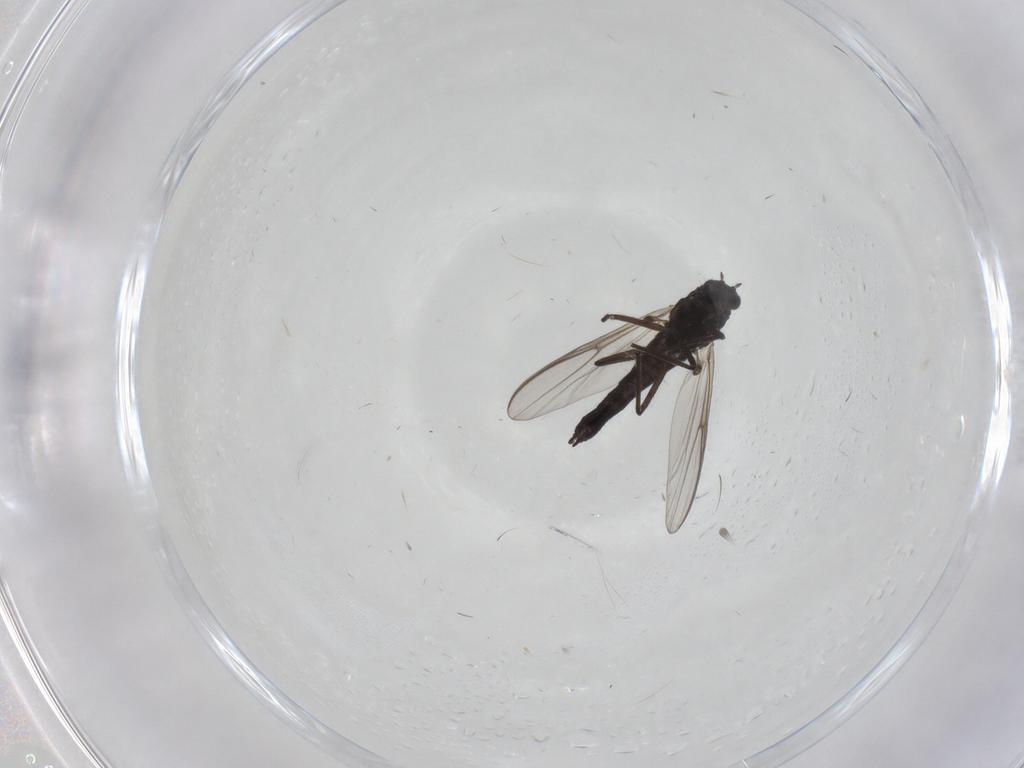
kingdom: Animalia
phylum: Arthropoda
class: Insecta
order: Diptera
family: Chironomidae
